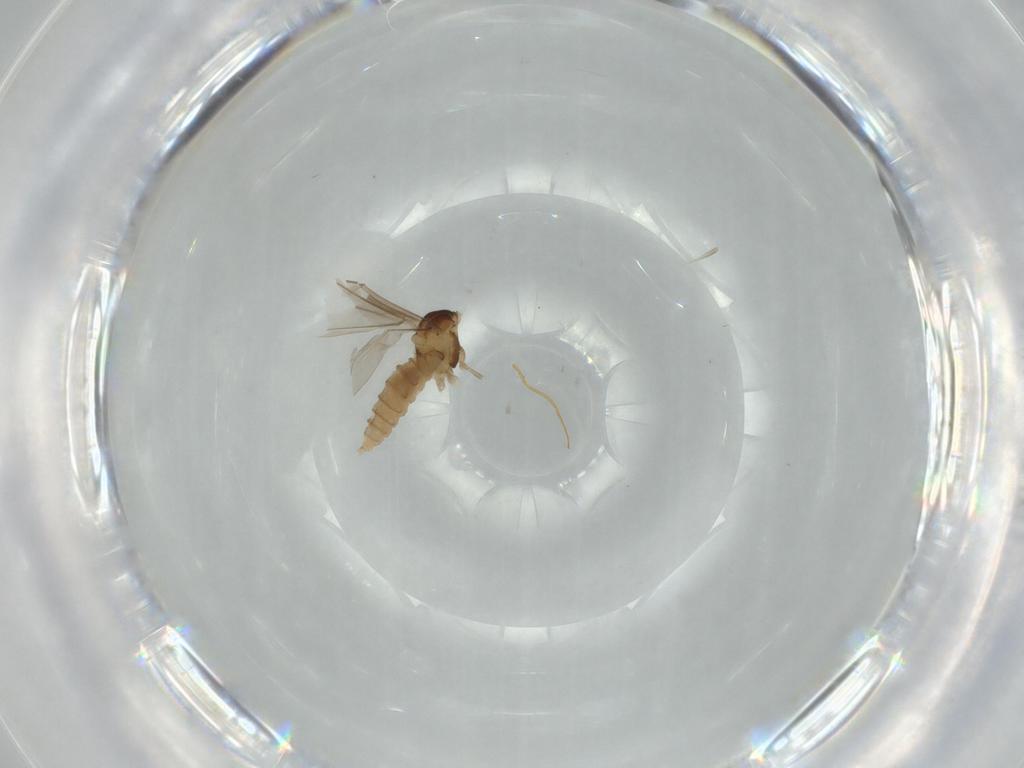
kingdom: Animalia
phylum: Arthropoda
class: Insecta
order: Diptera
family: Cecidomyiidae
